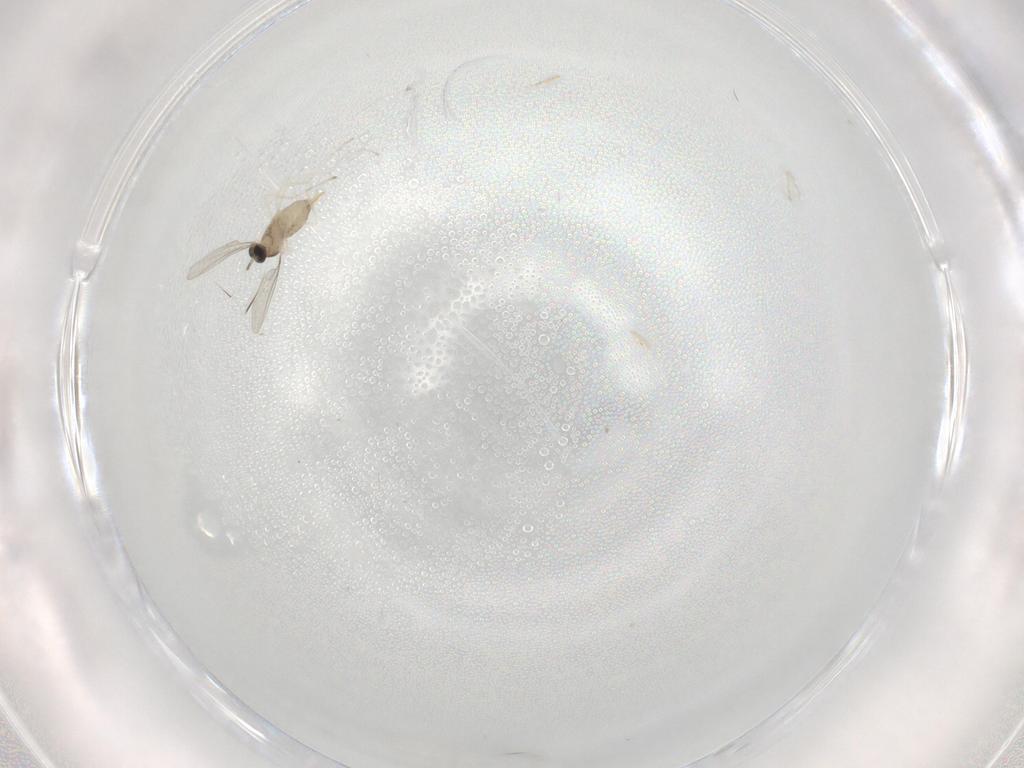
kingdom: Animalia
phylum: Arthropoda
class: Insecta
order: Diptera
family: Cecidomyiidae
